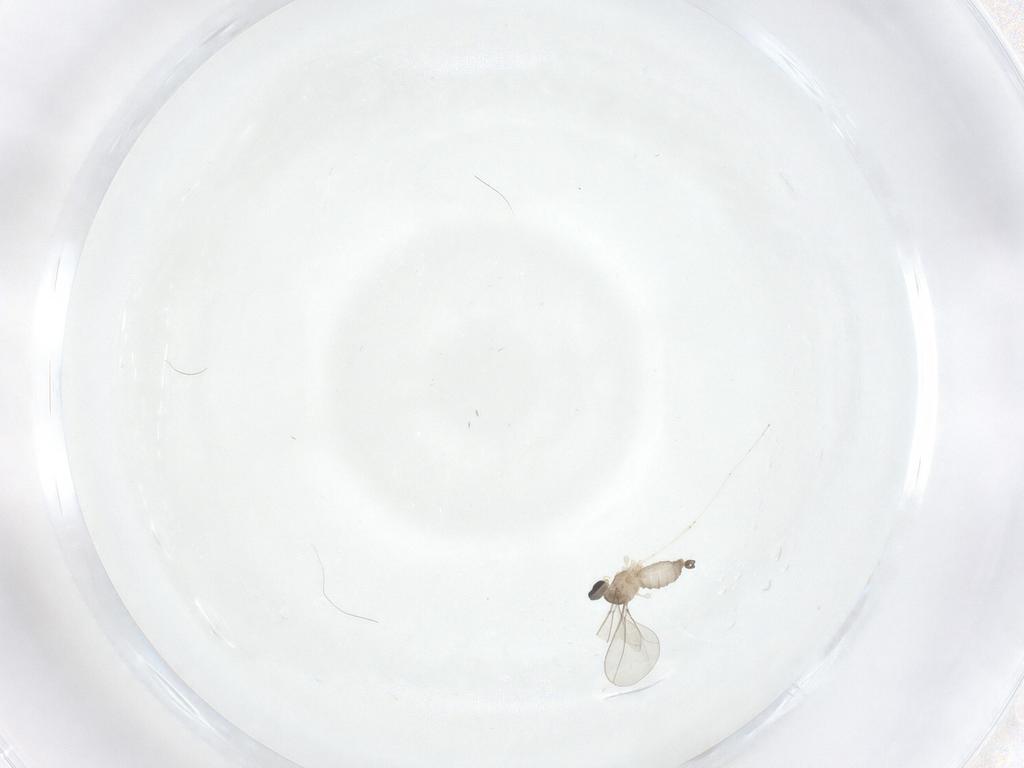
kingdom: Animalia
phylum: Arthropoda
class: Insecta
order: Diptera
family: Cecidomyiidae
